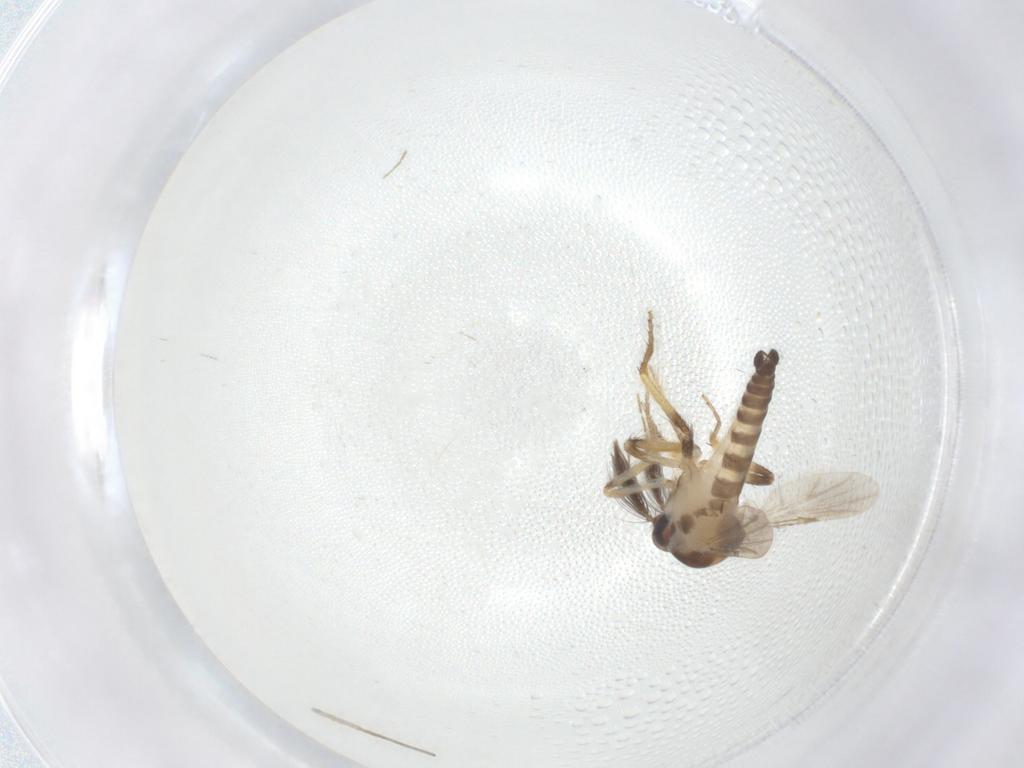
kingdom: Animalia
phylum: Arthropoda
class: Insecta
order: Diptera
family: Chironomidae
